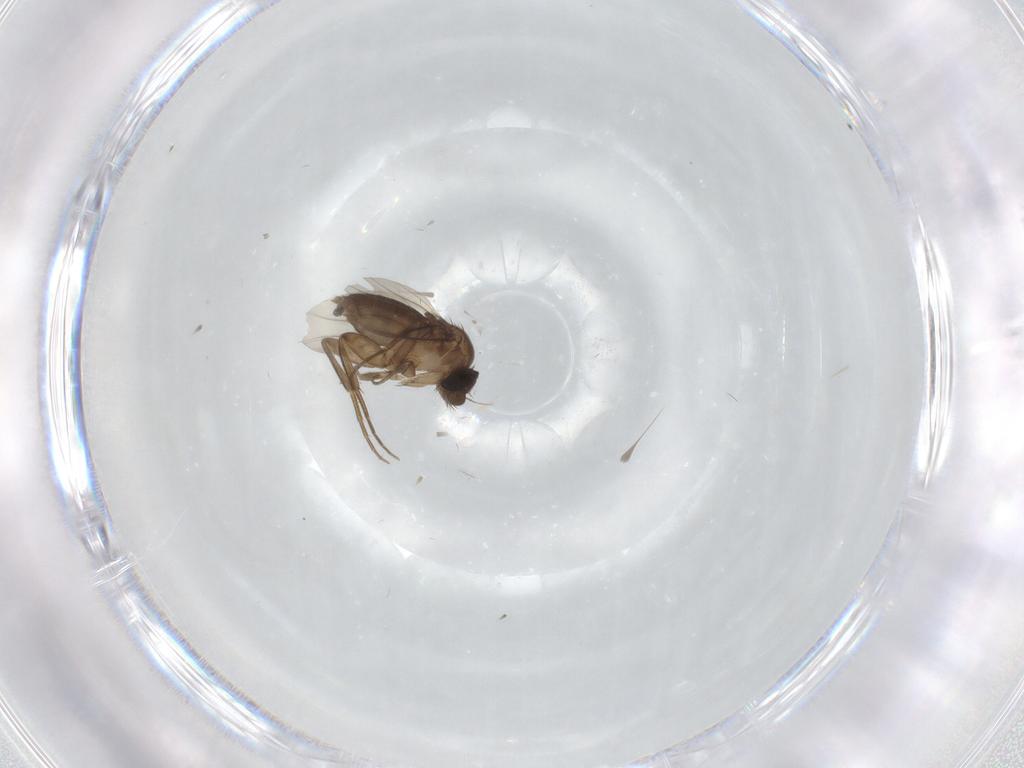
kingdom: Animalia
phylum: Arthropoda
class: Insecta
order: Diptera
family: Phoridae
